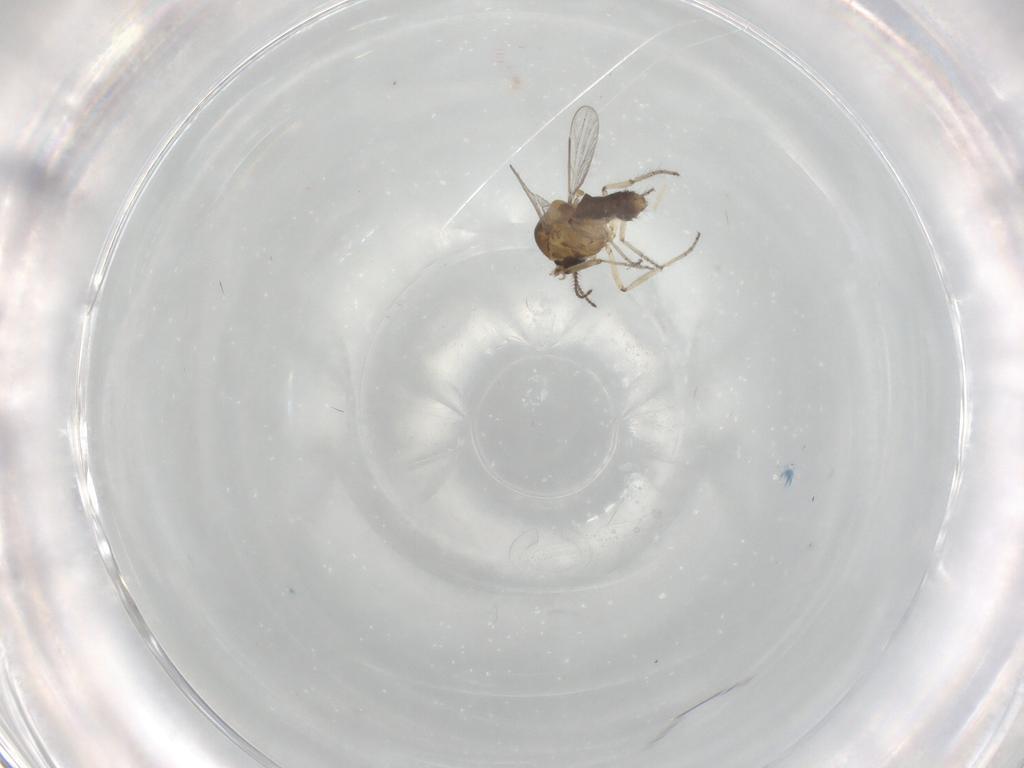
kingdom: Animalia
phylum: Arthropoda
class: Insecta
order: Diptera
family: Ceratopogonidae
